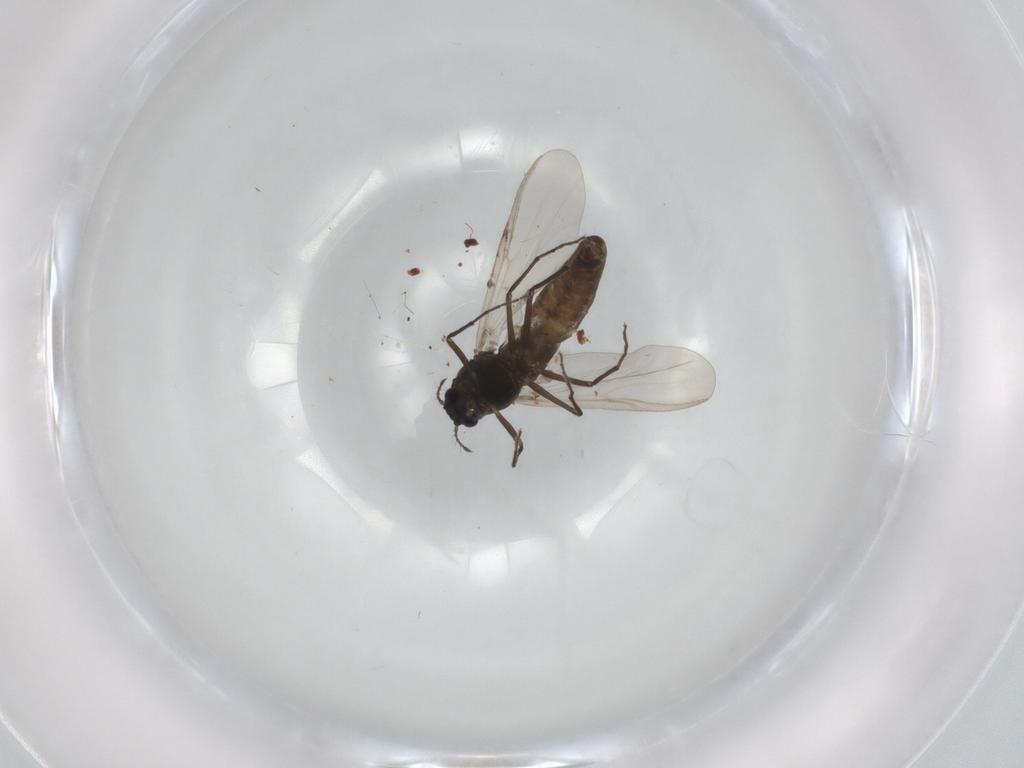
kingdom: Animalia
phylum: Arthropoda
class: Insecta
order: Diptera
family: Chironomidae
